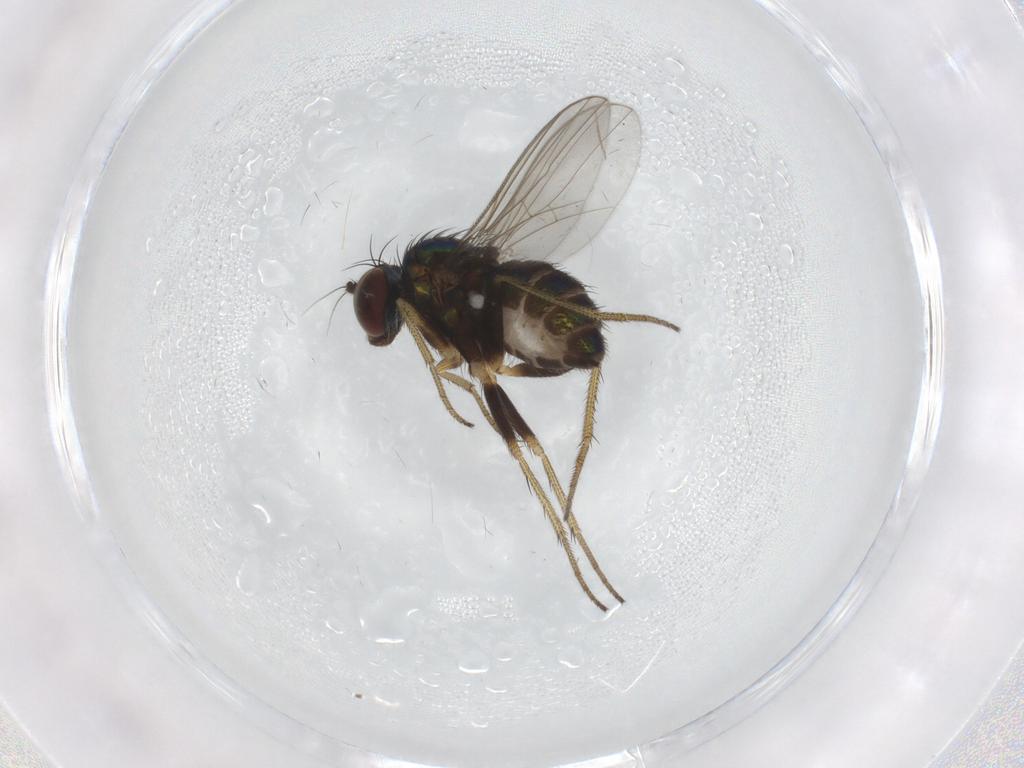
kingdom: Animalia
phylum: Arthropoda
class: Insecta
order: Diptera
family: Dolichopodidae
